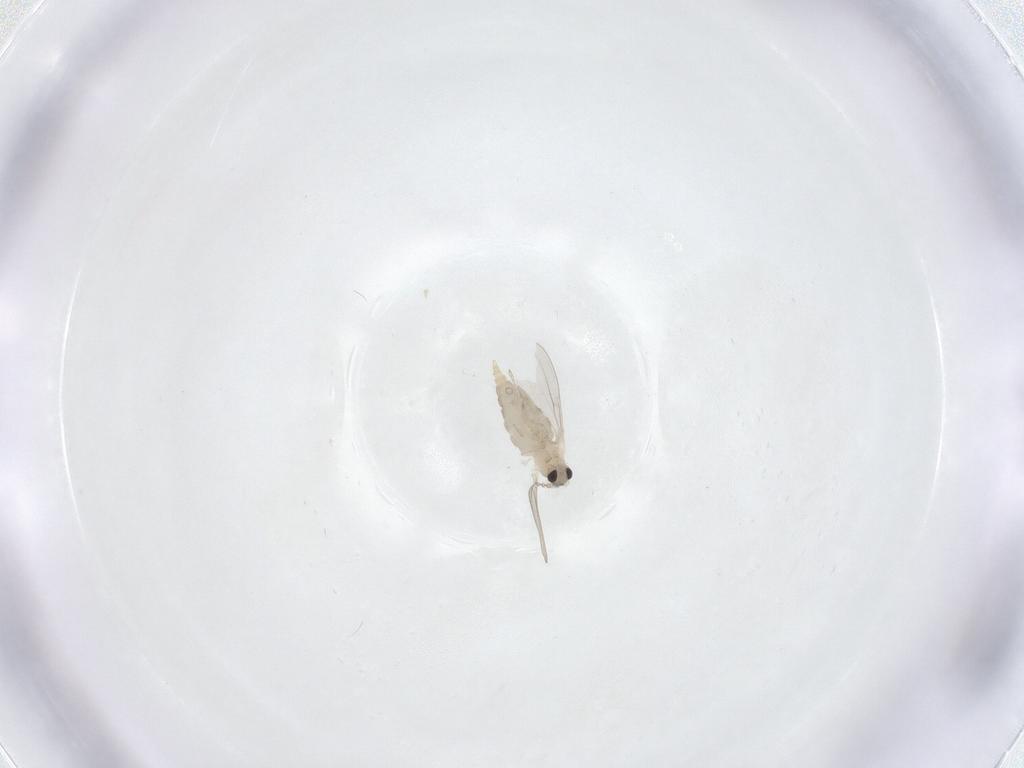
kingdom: Animalia
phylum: Arthropoda
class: Insecta
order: Diptera
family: Cecidomyiidae
